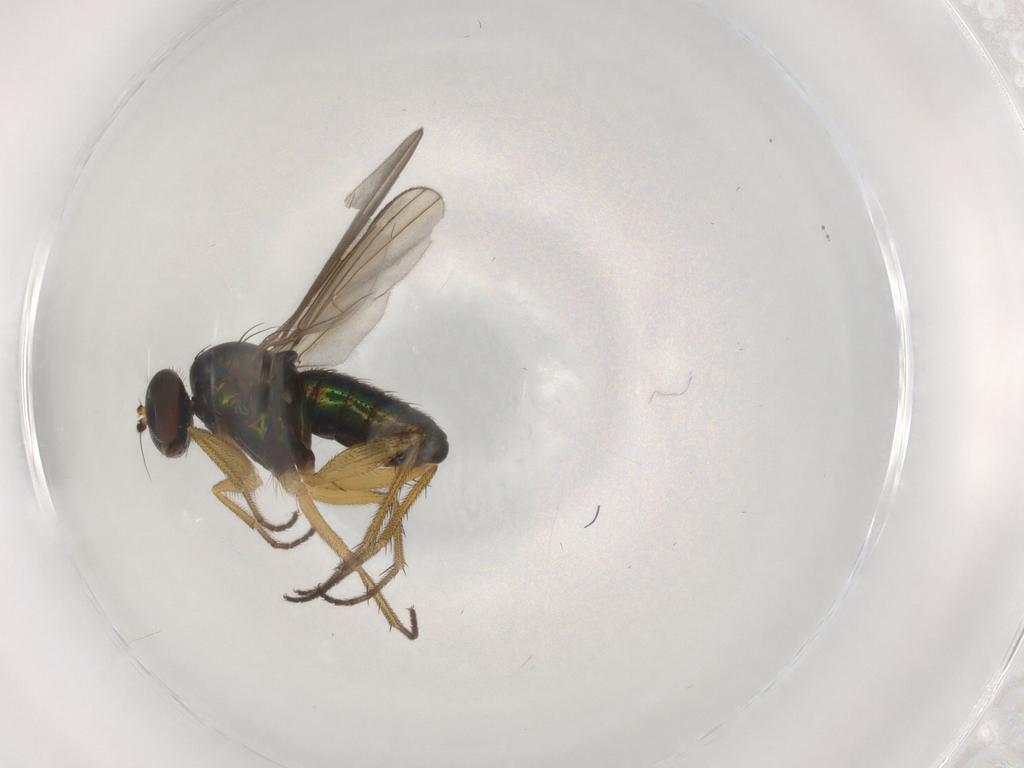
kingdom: Animalia
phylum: Arthropoda
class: Insecta
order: Diptera
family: Dolichopodidae
